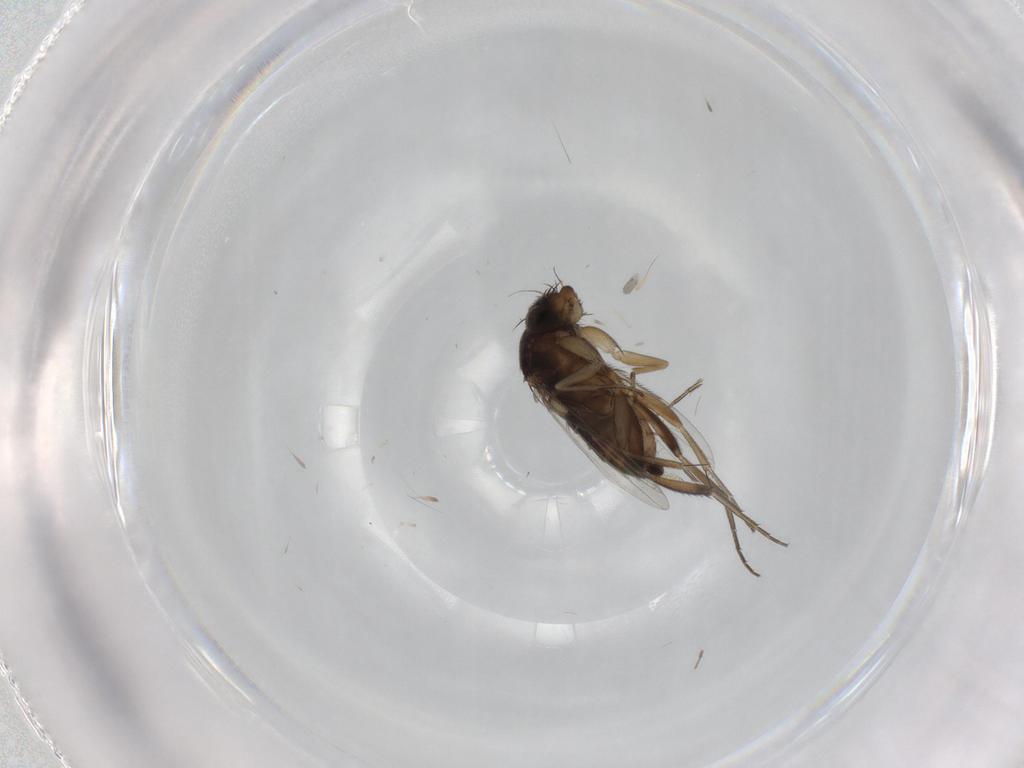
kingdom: Animalia
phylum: Arthropoda
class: Insecta
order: Diptera
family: Phoridae
